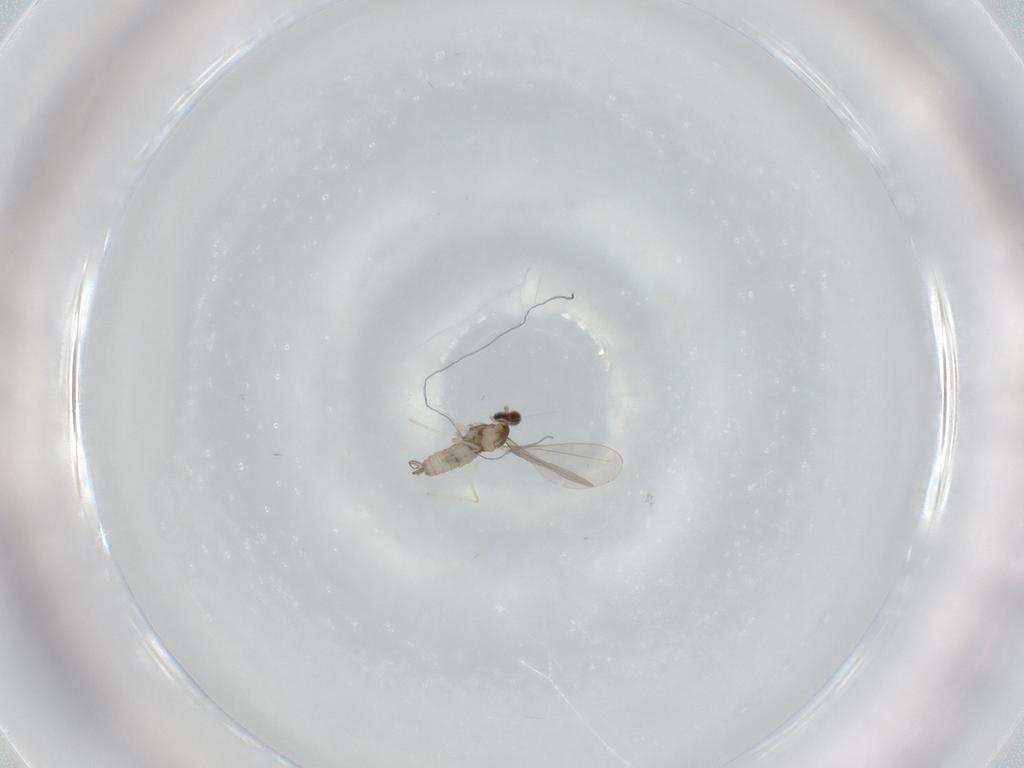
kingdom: Animalia
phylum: Arthropoda
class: Insecta
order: Diptera
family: Cecidomyiidae
